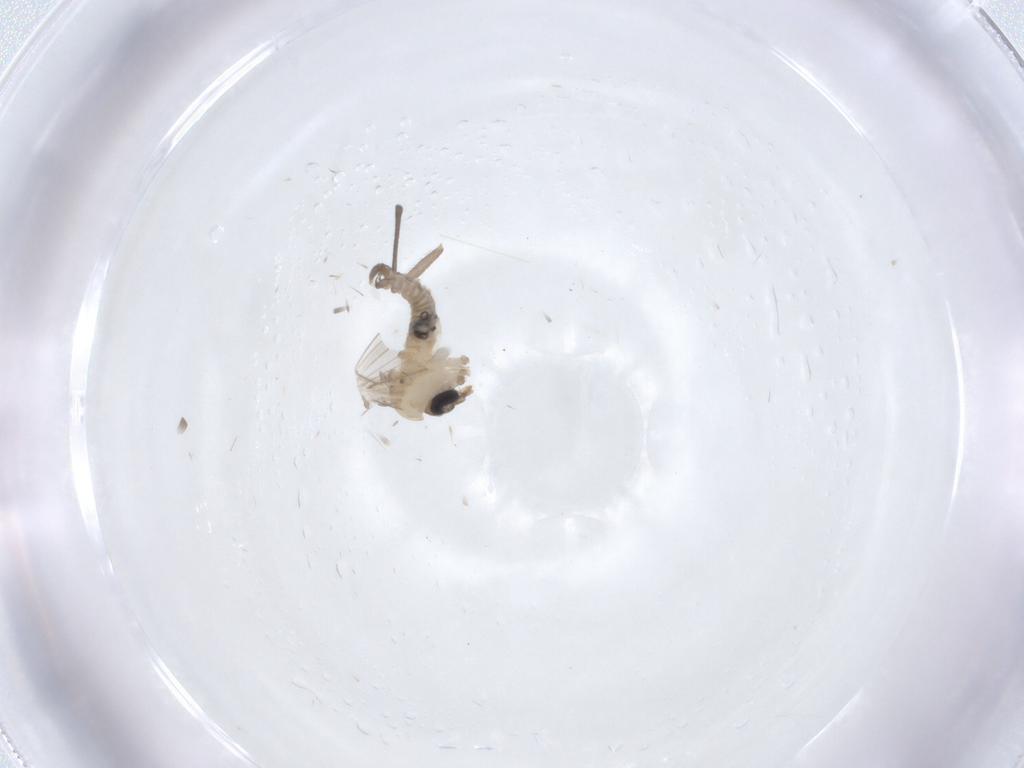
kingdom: Animalia
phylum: Arthropoda
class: Insecta
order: Diptera
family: Psychodidae
